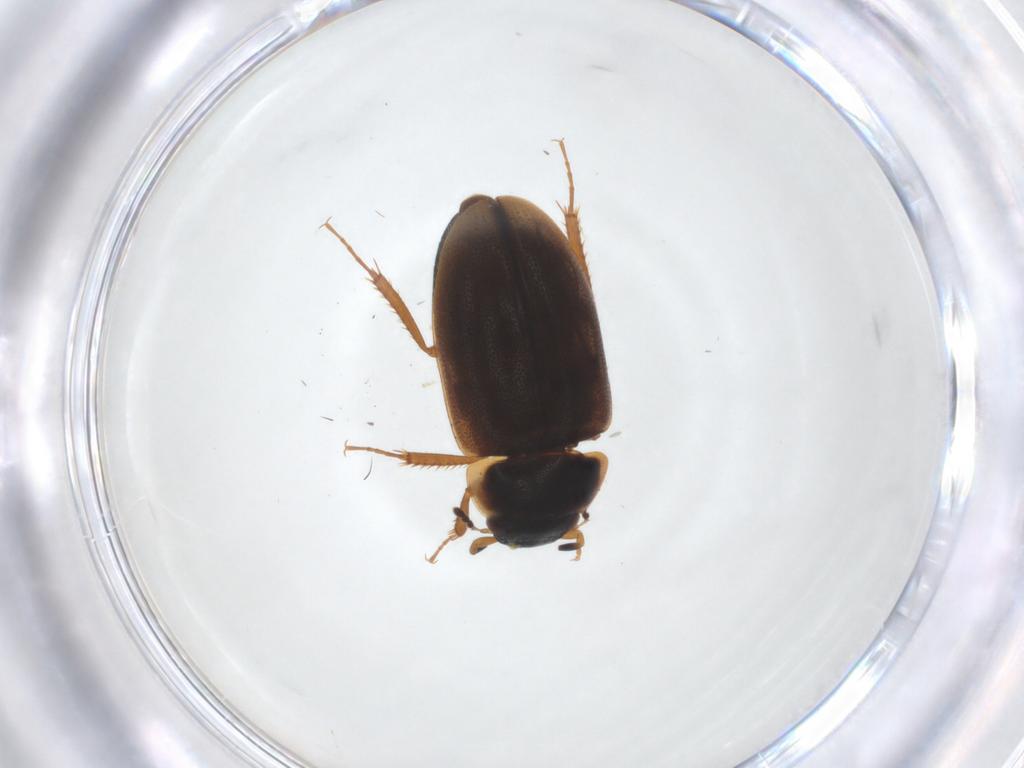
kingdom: Animalia
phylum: Arthropoda
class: Insecta
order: Coleoptera
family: Hydrophilidae
